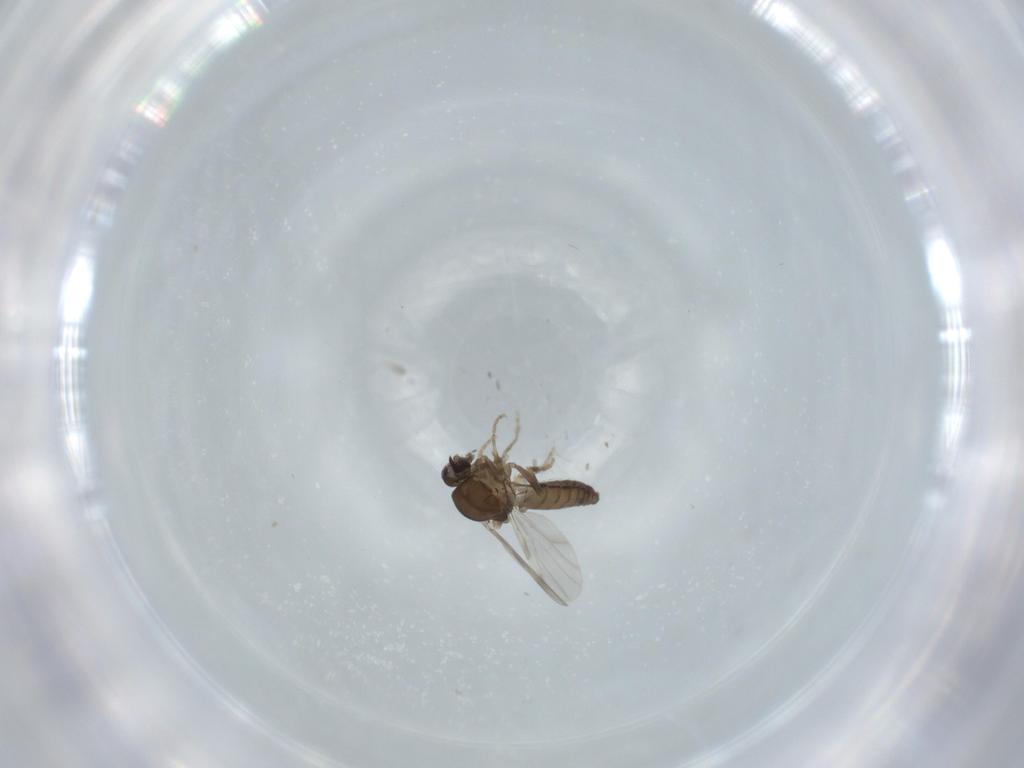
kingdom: Animalia
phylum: Arthropoda
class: Insecta
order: Diptera
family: Ceratopogonidae
